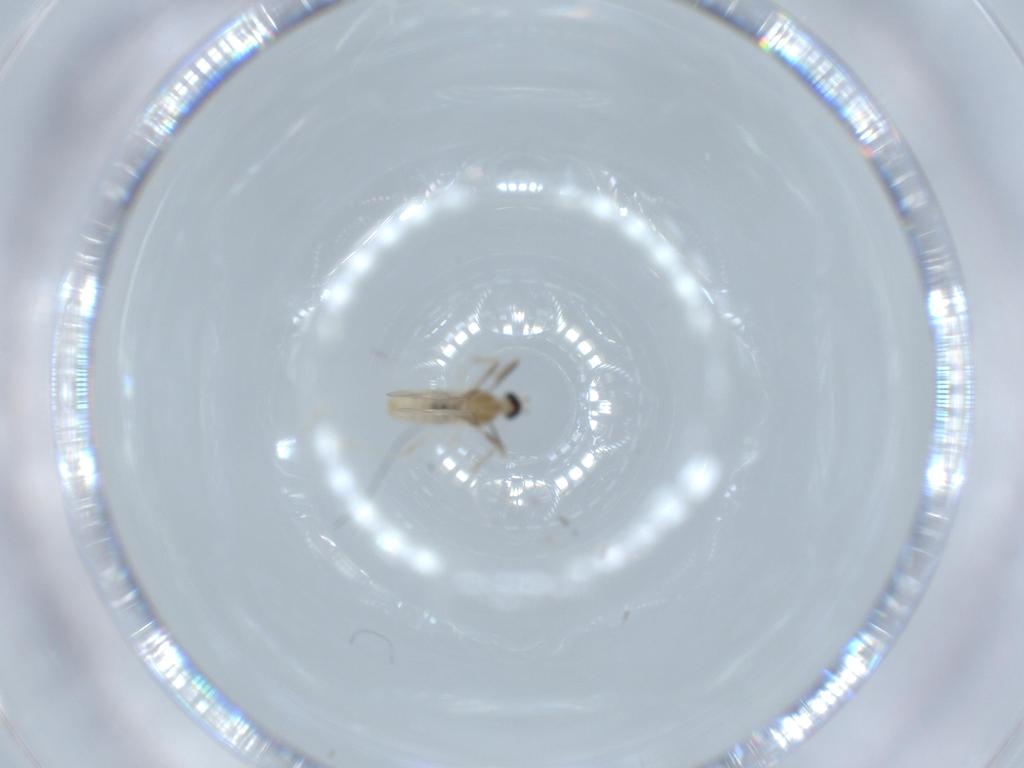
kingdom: Animalia
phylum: Arthropoda
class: Insecta
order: Diptera
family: Cecidomyiidae
